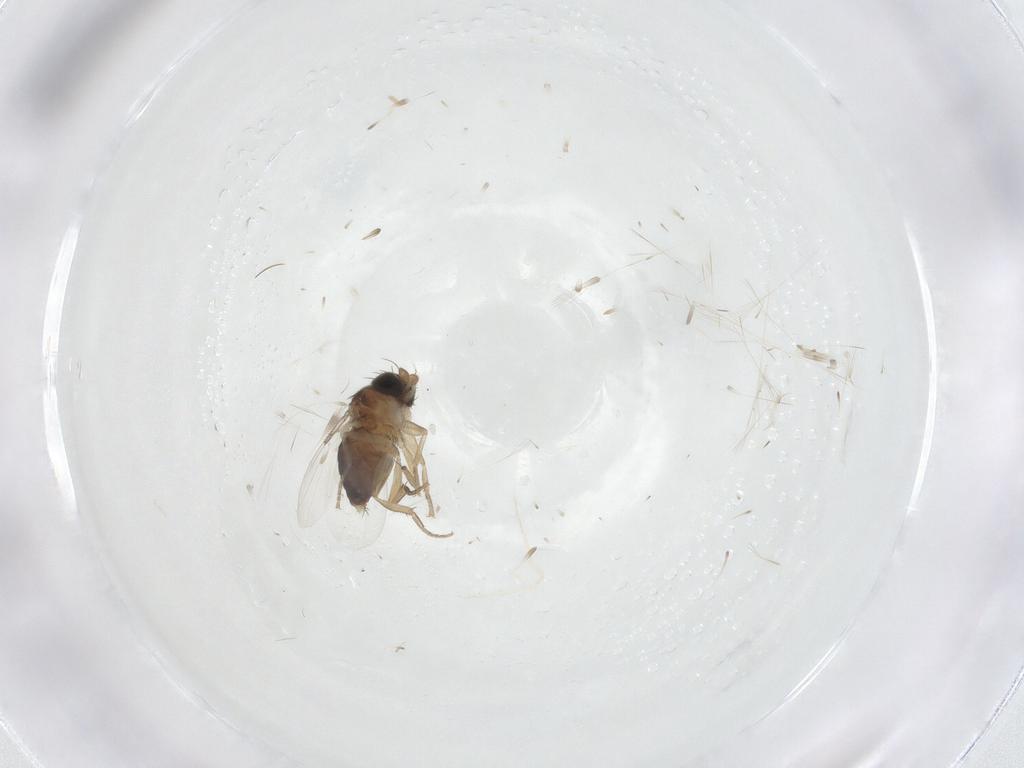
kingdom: Animalia
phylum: Arthropoda
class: Insecta
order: Diptera
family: Phoridae
